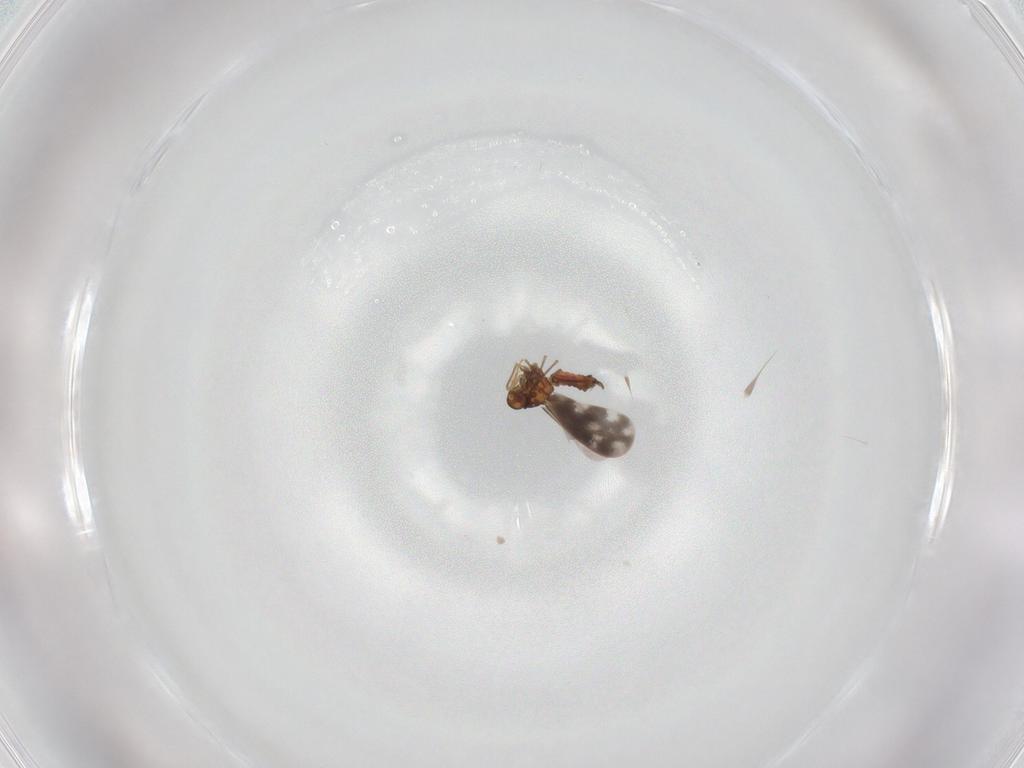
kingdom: Animalia
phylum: Arthropoda
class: Insecta
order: Hemiptera
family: Aleyrodidae
